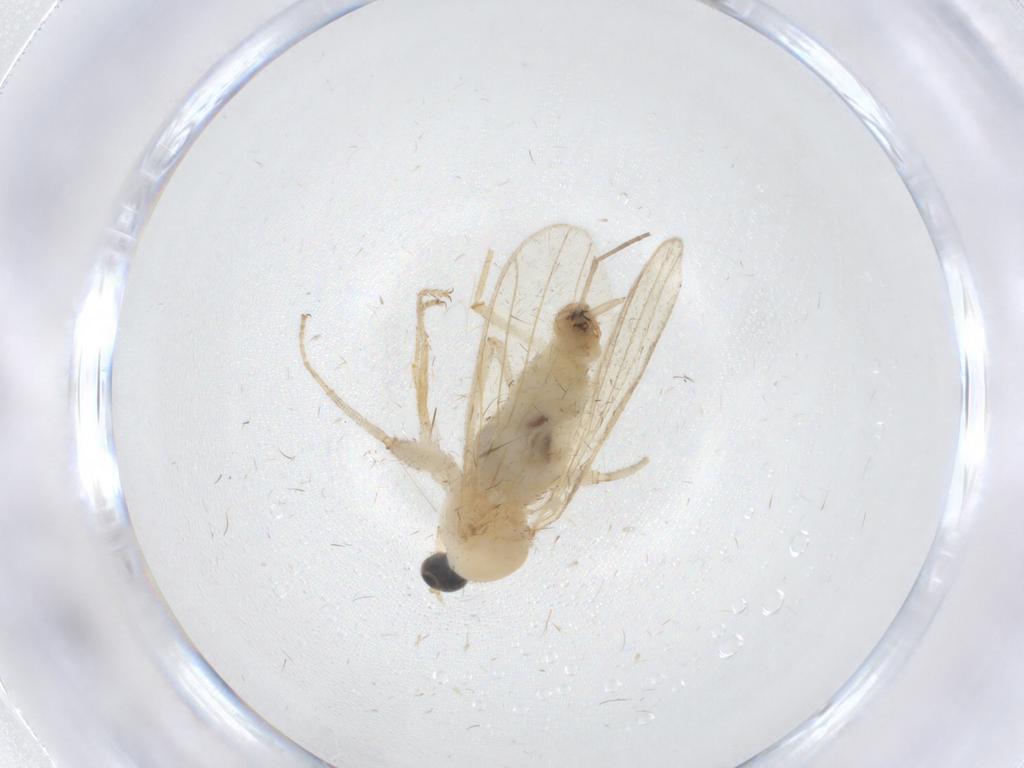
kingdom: Animalia
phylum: Arthropoda
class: Insecta
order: Diptera
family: Hybotidae
